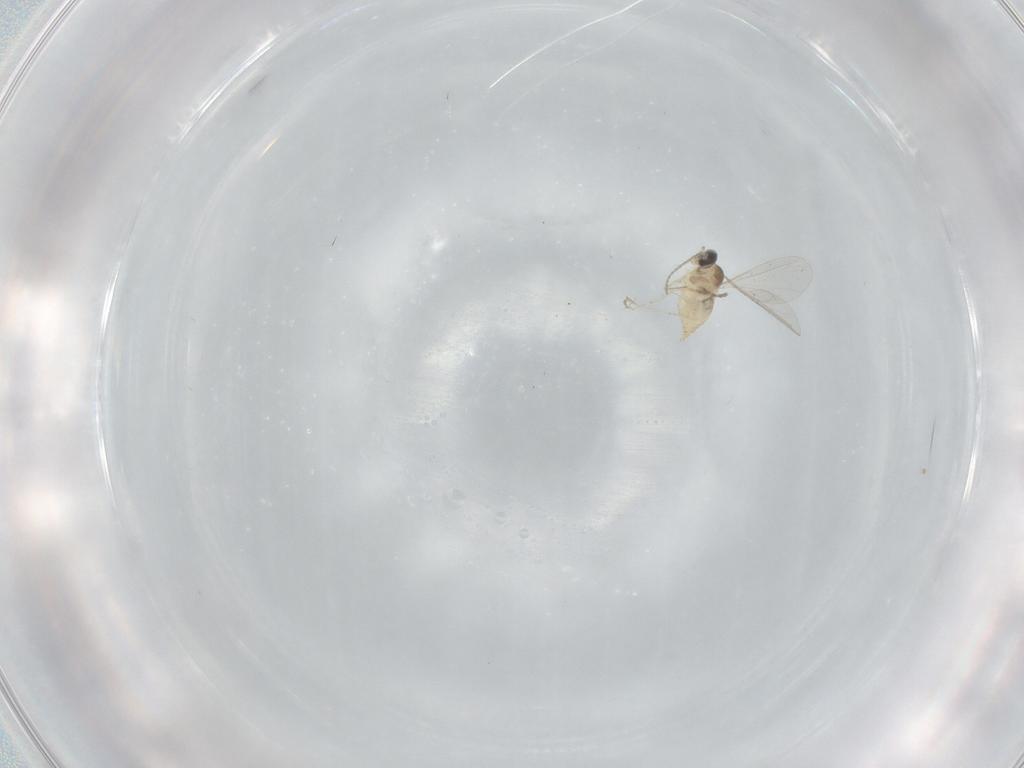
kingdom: Animalia
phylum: Arthropoda
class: Insecta
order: Diptera
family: Cecidomyiidae
